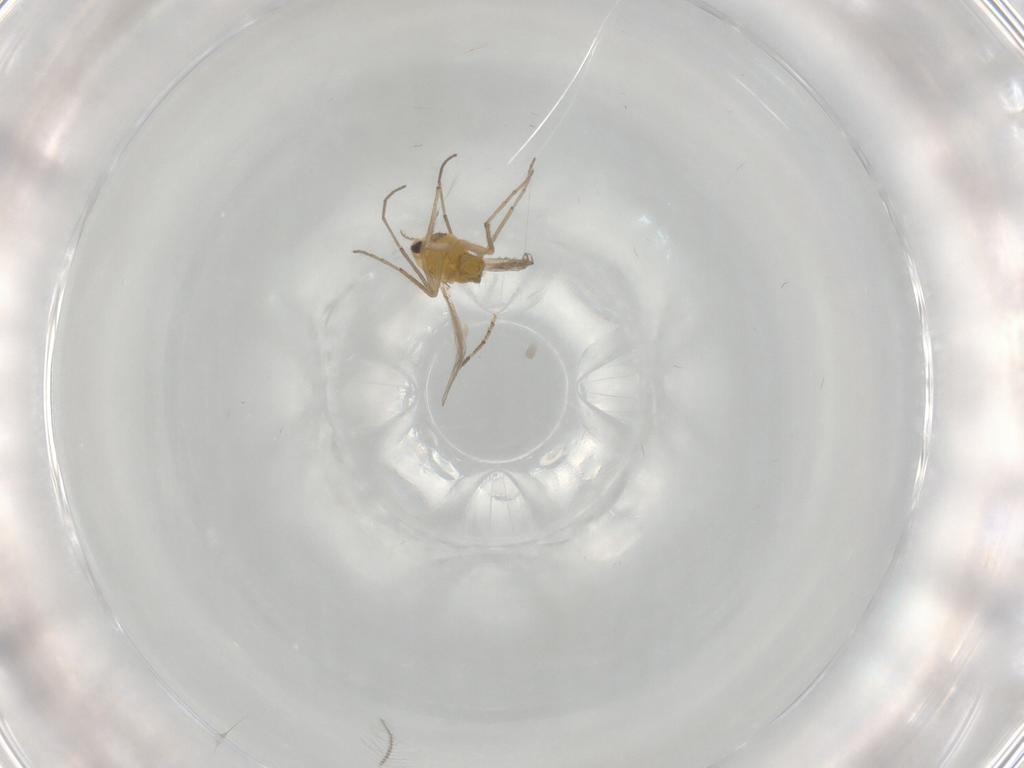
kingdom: Animalia
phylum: Arthropoda
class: Insecta
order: Diptera
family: Chironomidae
